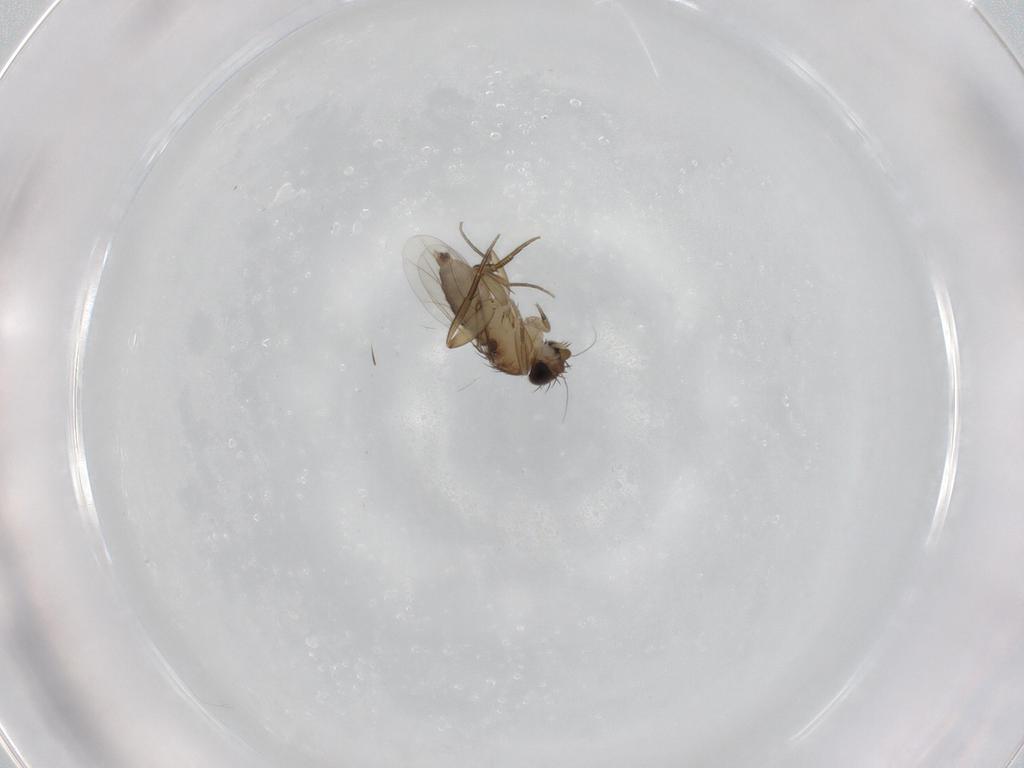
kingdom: Animalia
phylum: Arthropoda
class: Insecta
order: Diptera
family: Phoridae
